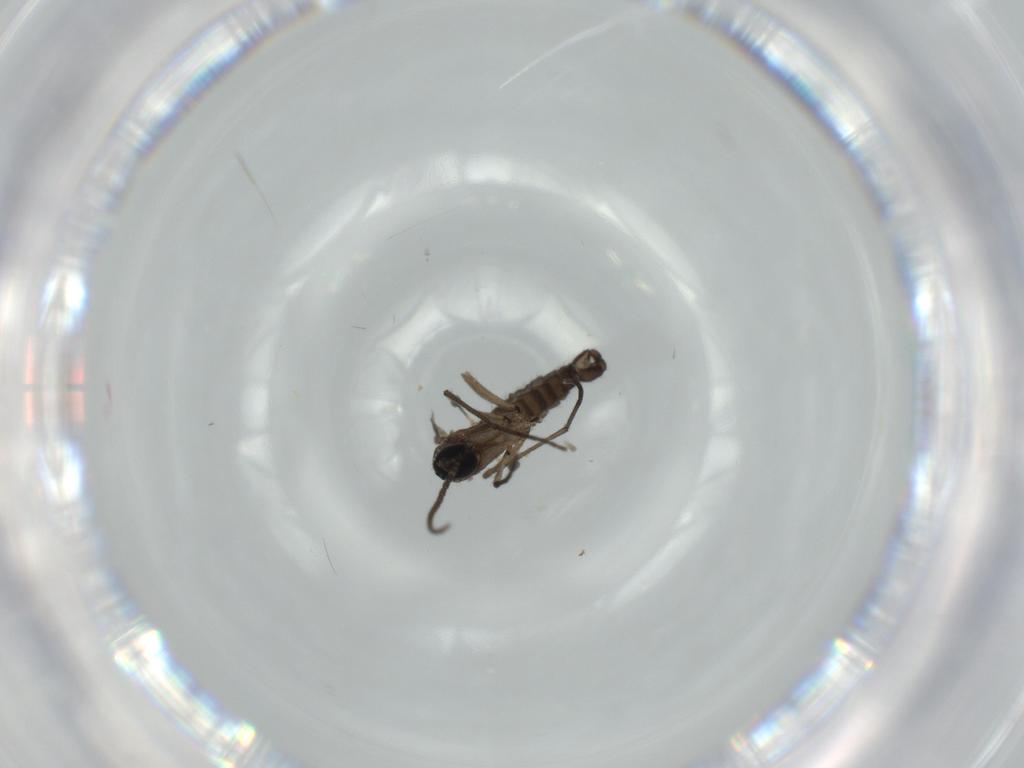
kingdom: Animalia
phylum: Arthropoda
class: Insecta
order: Diptera
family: Sciaridae
